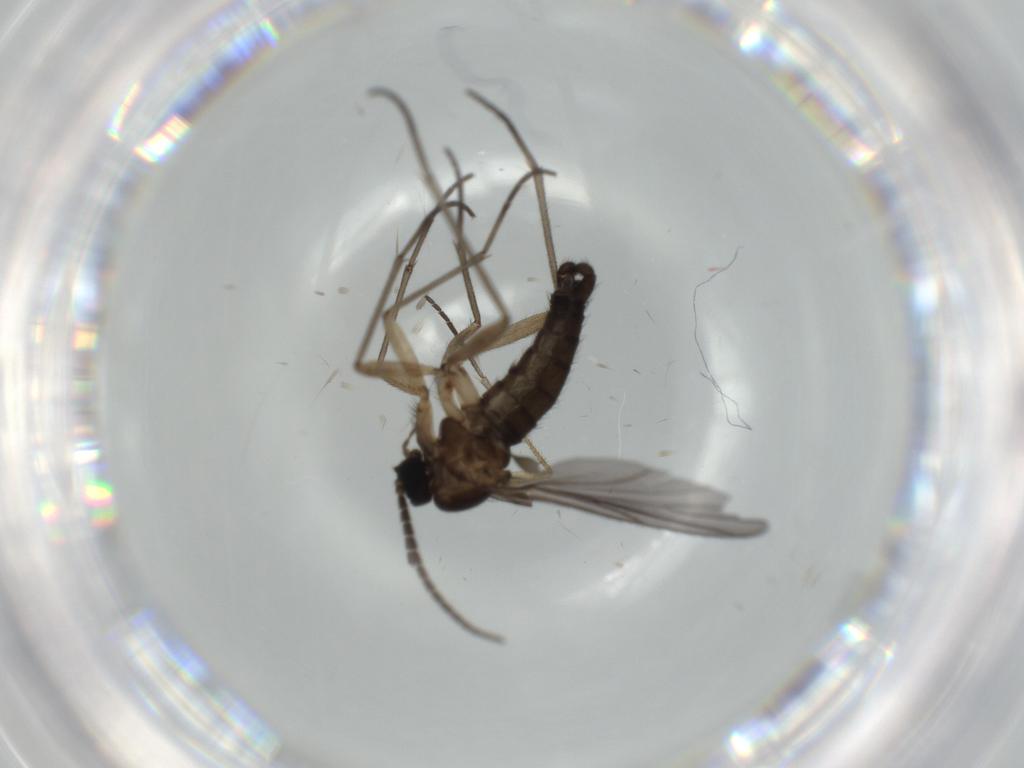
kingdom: Animalia
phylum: Arthropoda
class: Insecta
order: Diptera
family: Sciaridae
